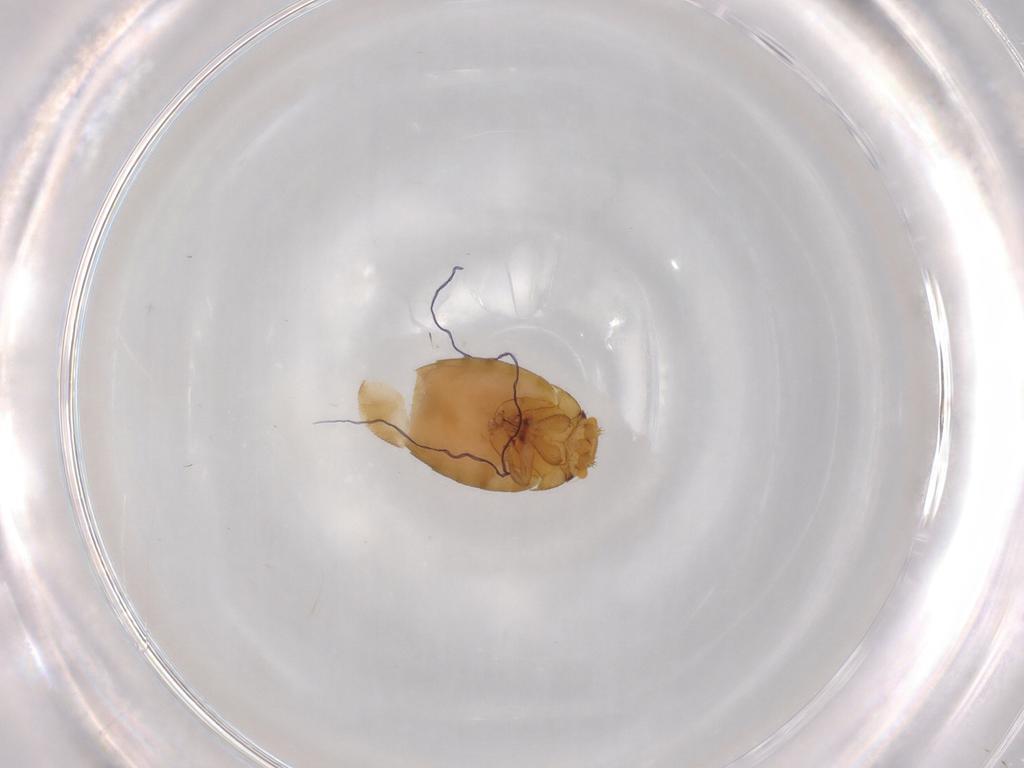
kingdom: Animalia
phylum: Arthropoda
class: Insecta
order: Diptera
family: Phoridae
